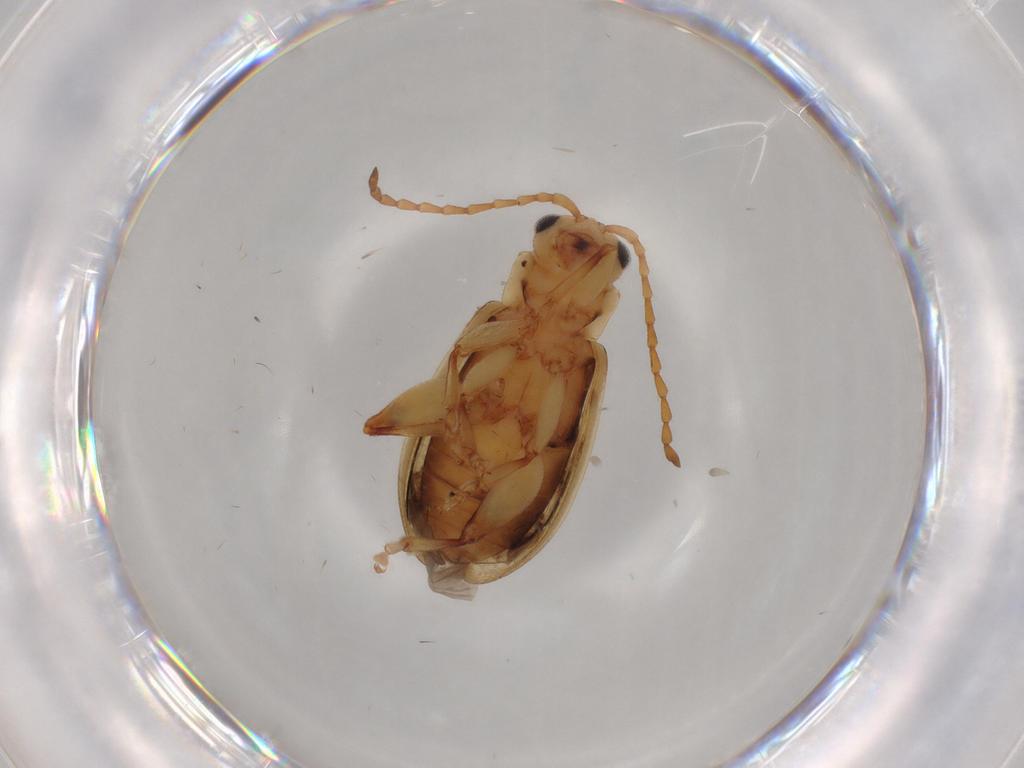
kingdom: Animalia
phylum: Arthropoda
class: Insecta
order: Coleoptera
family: Chrysomelidae
